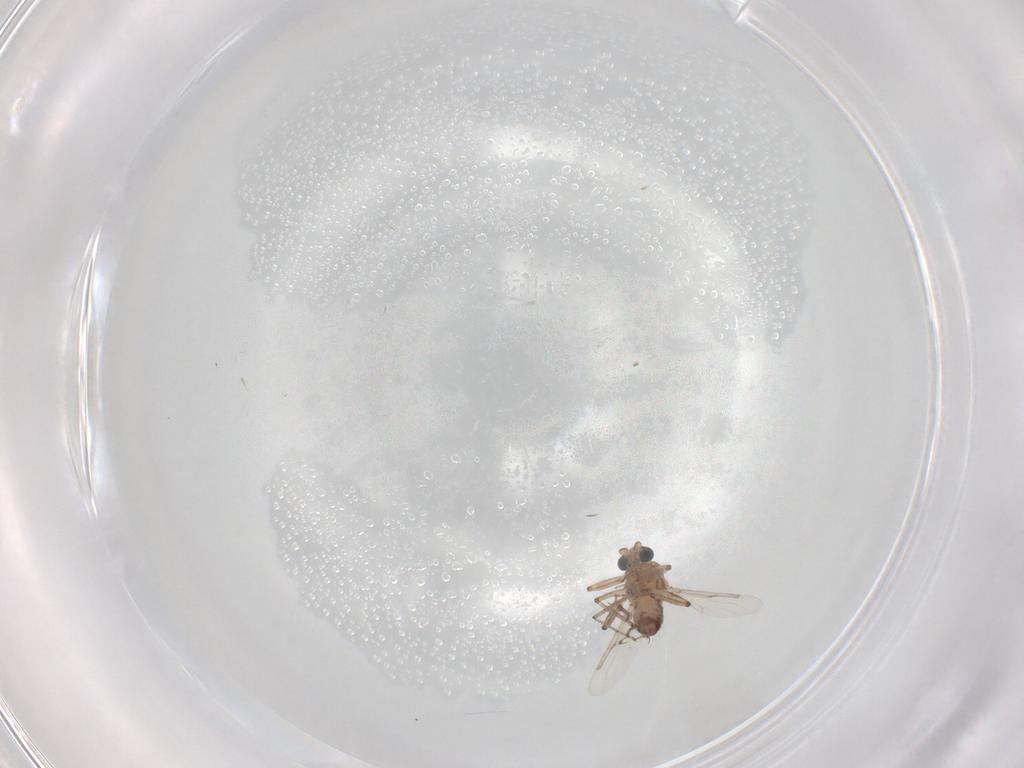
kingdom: Animalia
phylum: Arthropoda
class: Insecta
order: Diptera
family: Ceratopogonidae
